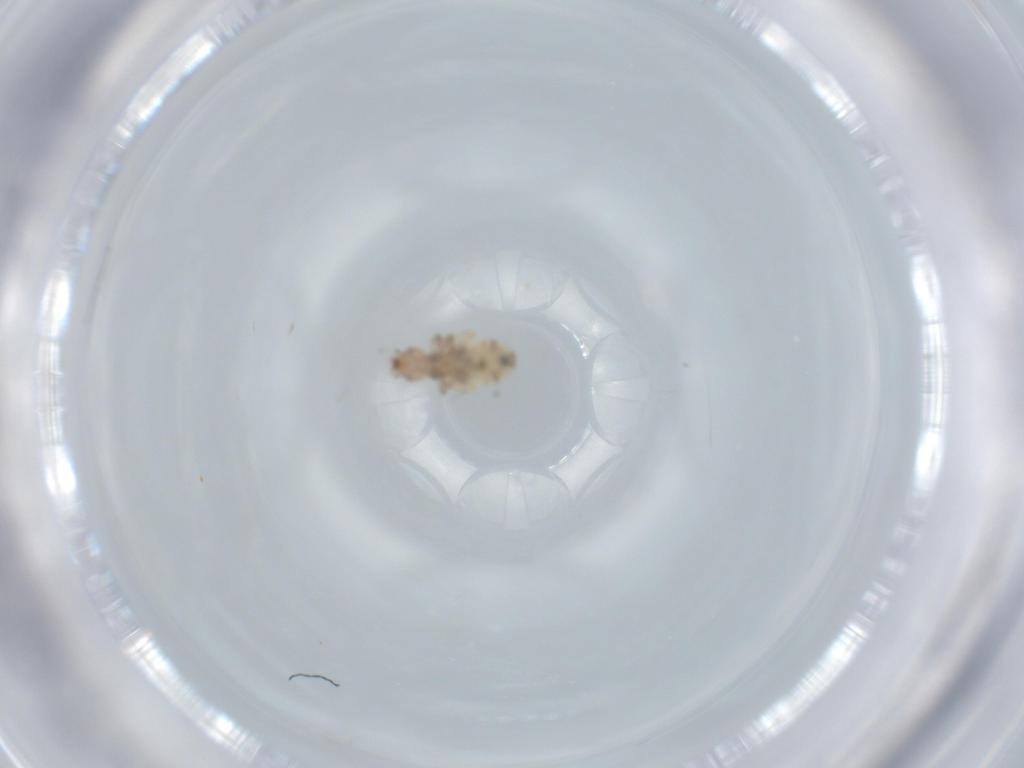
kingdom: Animalia
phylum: Arthropoda
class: Insecta
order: Psocodea
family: Liposcelididae
